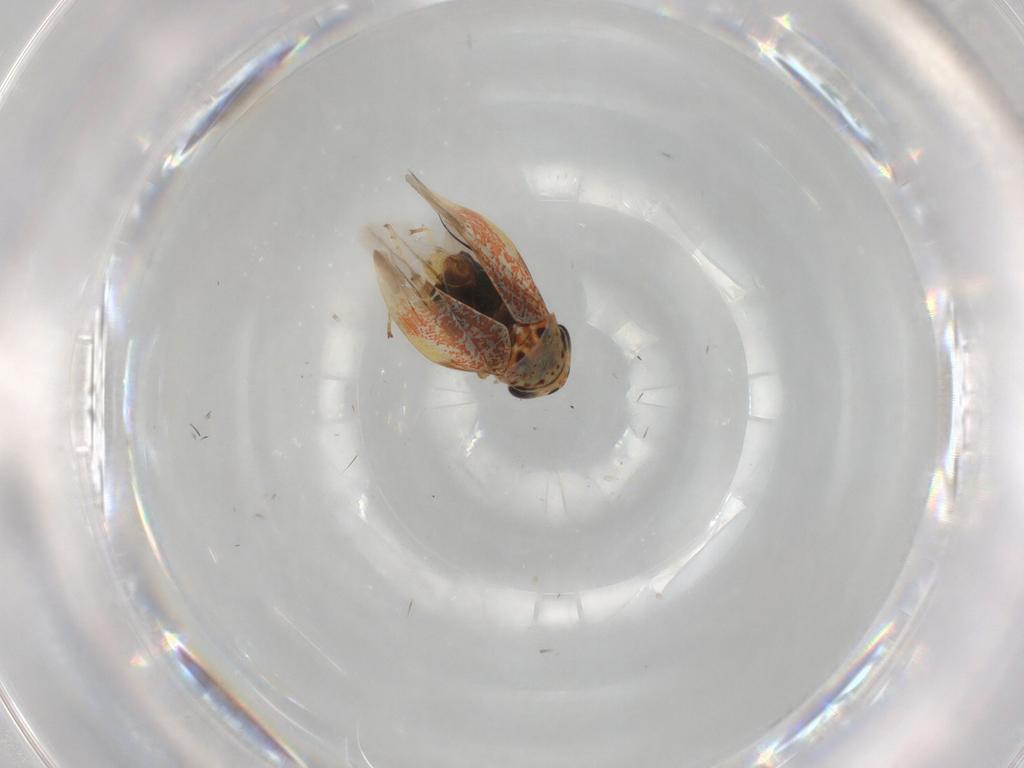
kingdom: Animalia
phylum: Arthropoda
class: Insecta
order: Hemiptera
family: Cicadellidae
